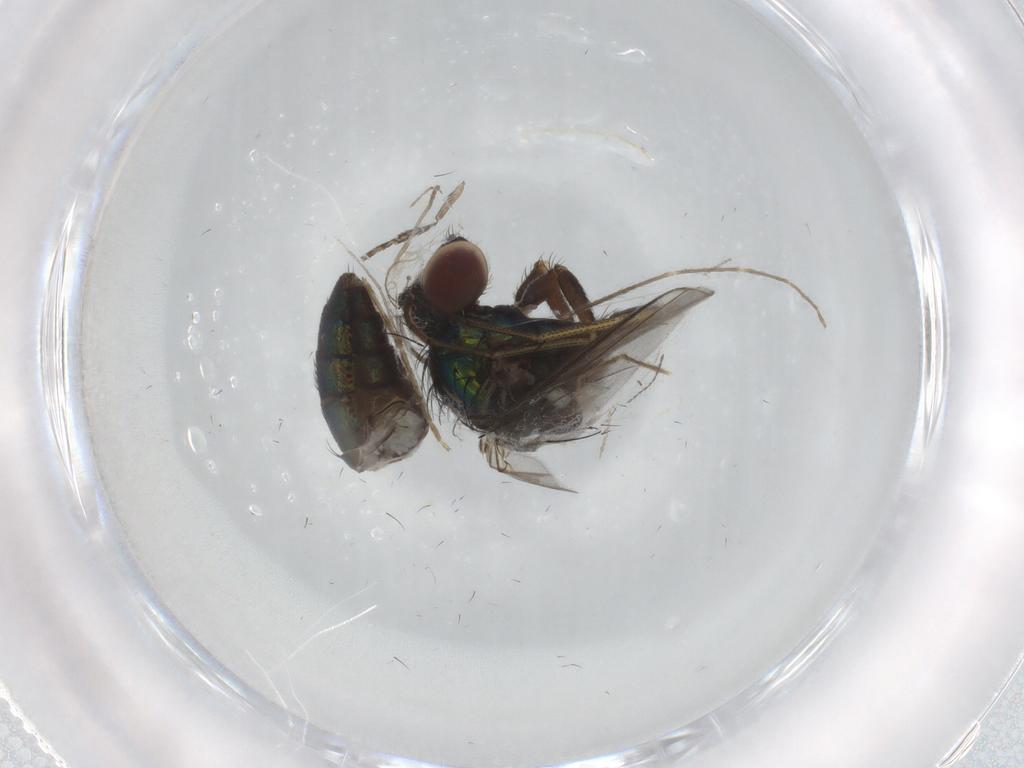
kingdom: Animalia
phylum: Arthropoda
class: Insecta
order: Diptera
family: Dolichopodidae
